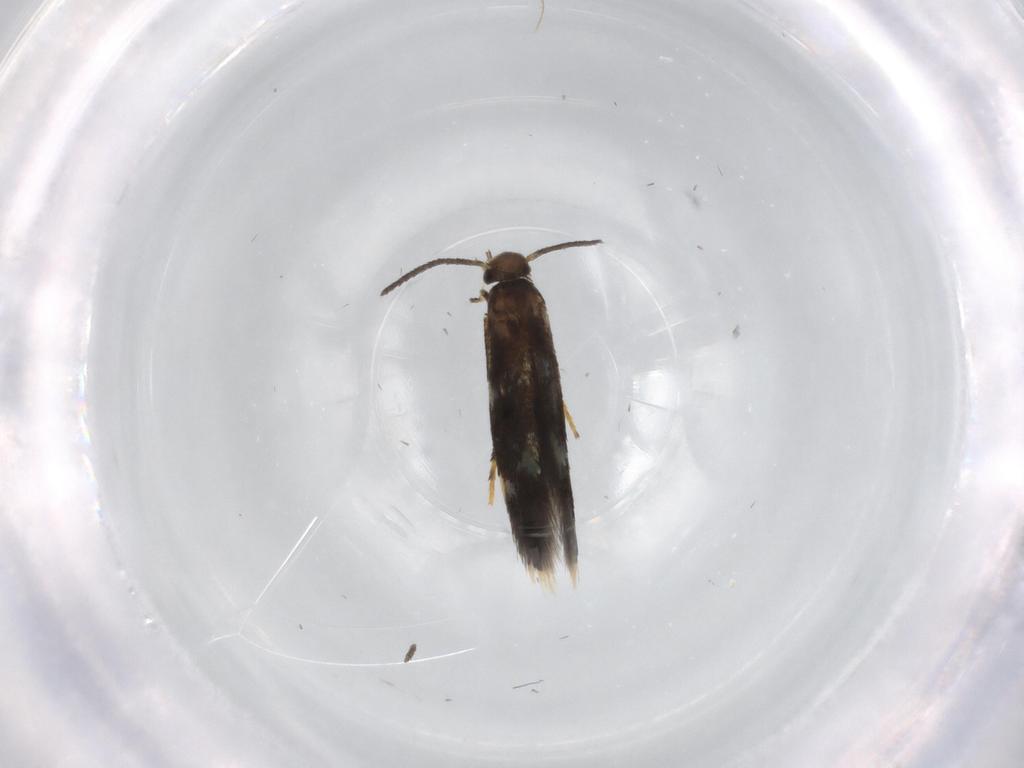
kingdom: Animalia
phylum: Arthropoda
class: Insecta
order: Lepidoptera
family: Heliozelidae
